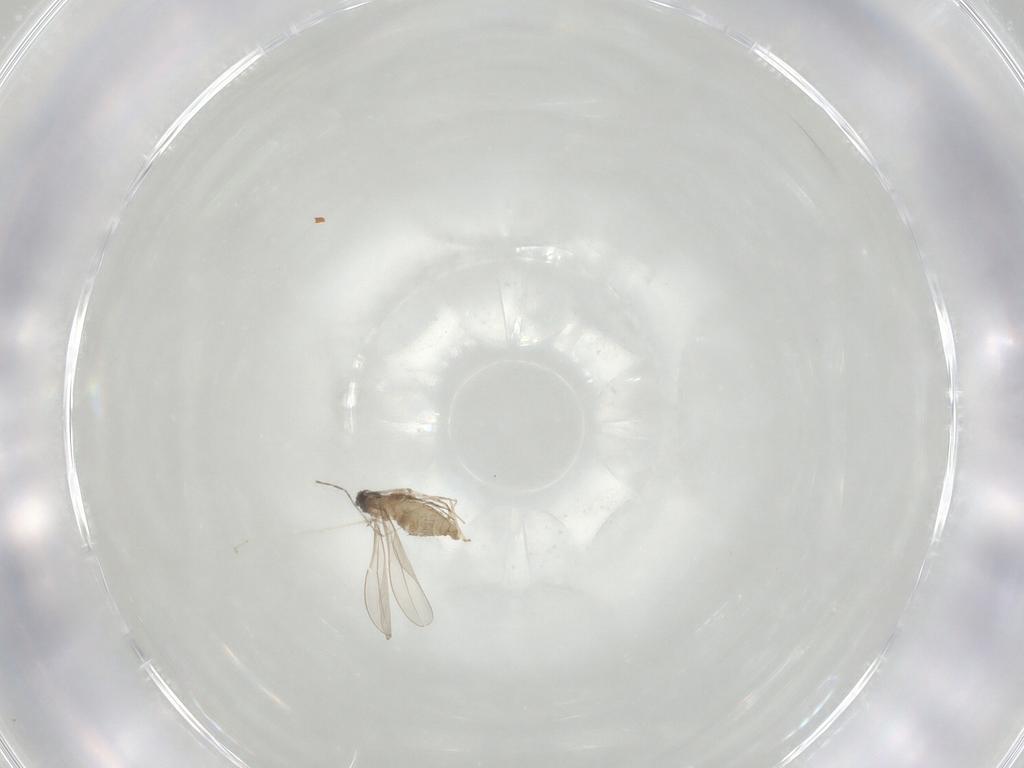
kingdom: Animalia
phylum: Arthropoda
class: Insecta
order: Diptera
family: Cecidomyiidae
